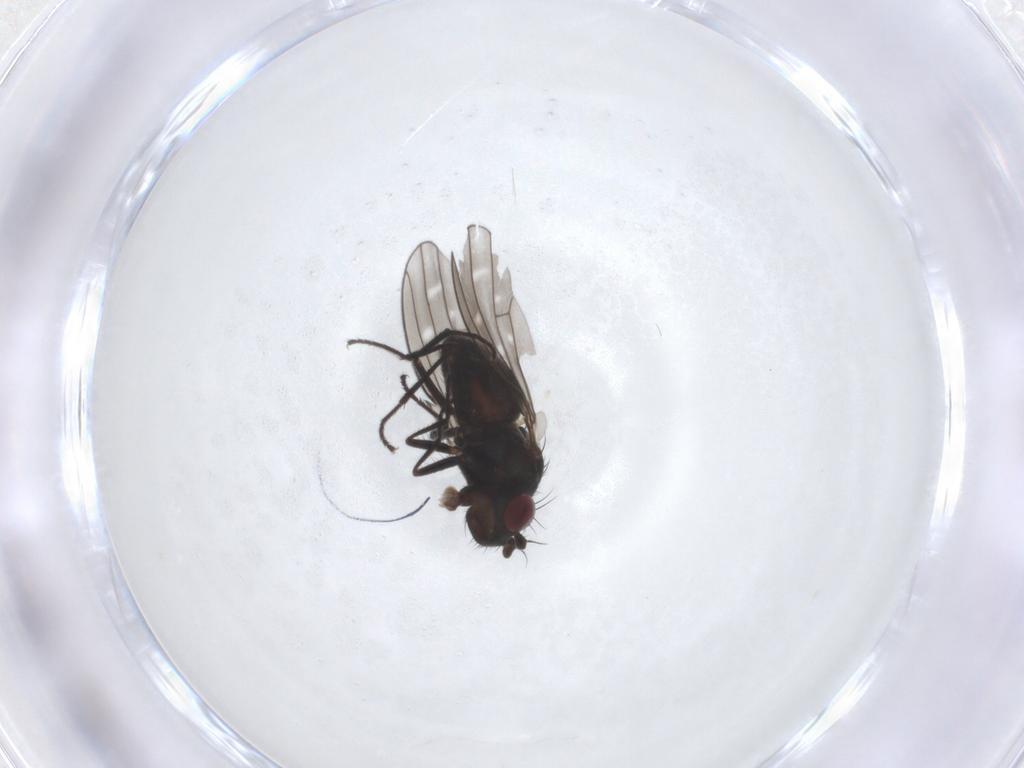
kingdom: Animalia
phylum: Arthropoda
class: Insecta
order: Diptera
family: Ephydridae
